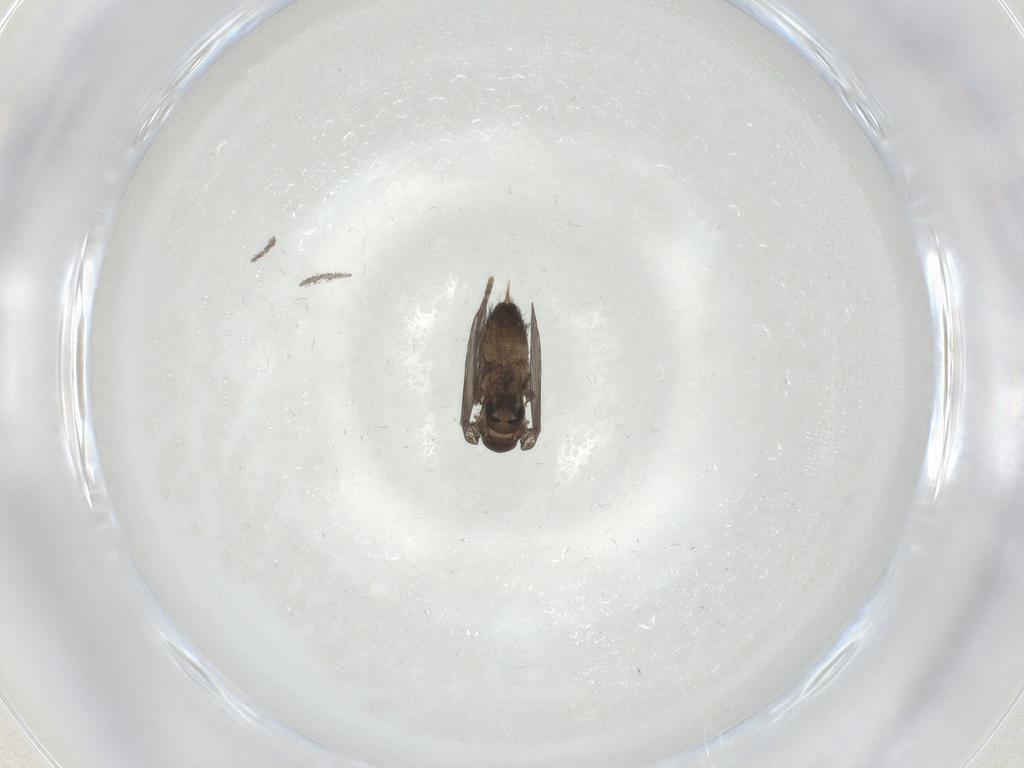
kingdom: Animalia
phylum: Arthropoda
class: Insecta
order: Diptera
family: Psychodidae
